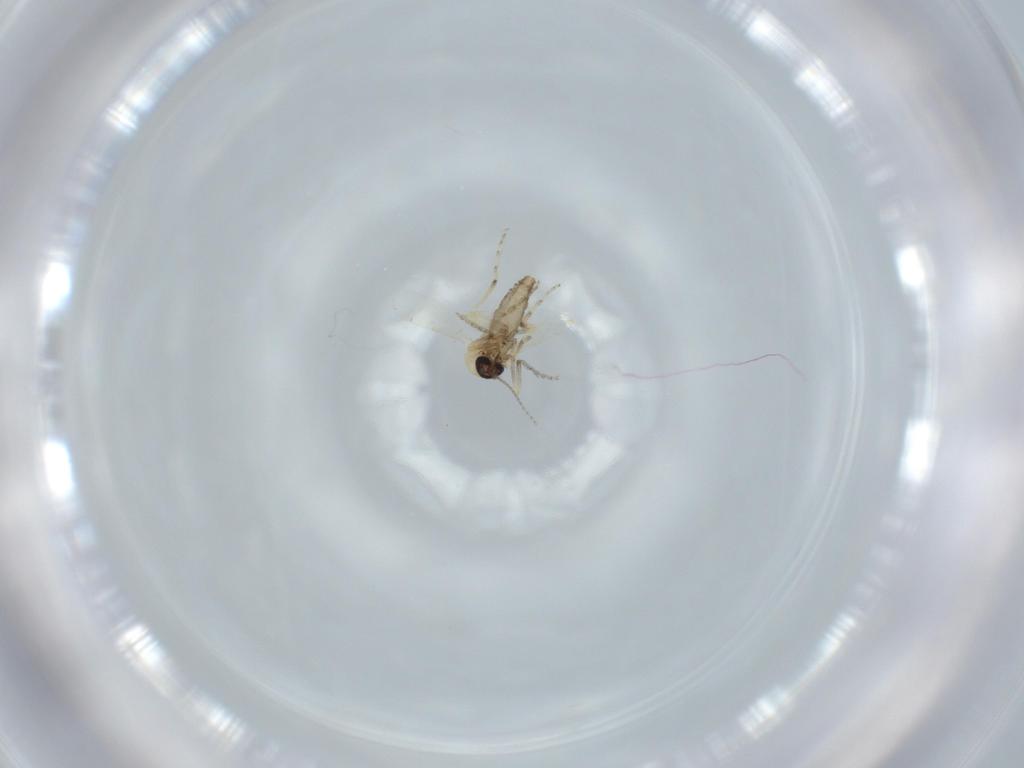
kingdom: Animalia
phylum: Arthropoda
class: Insecta
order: Diptera
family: Ceratopogonidae
